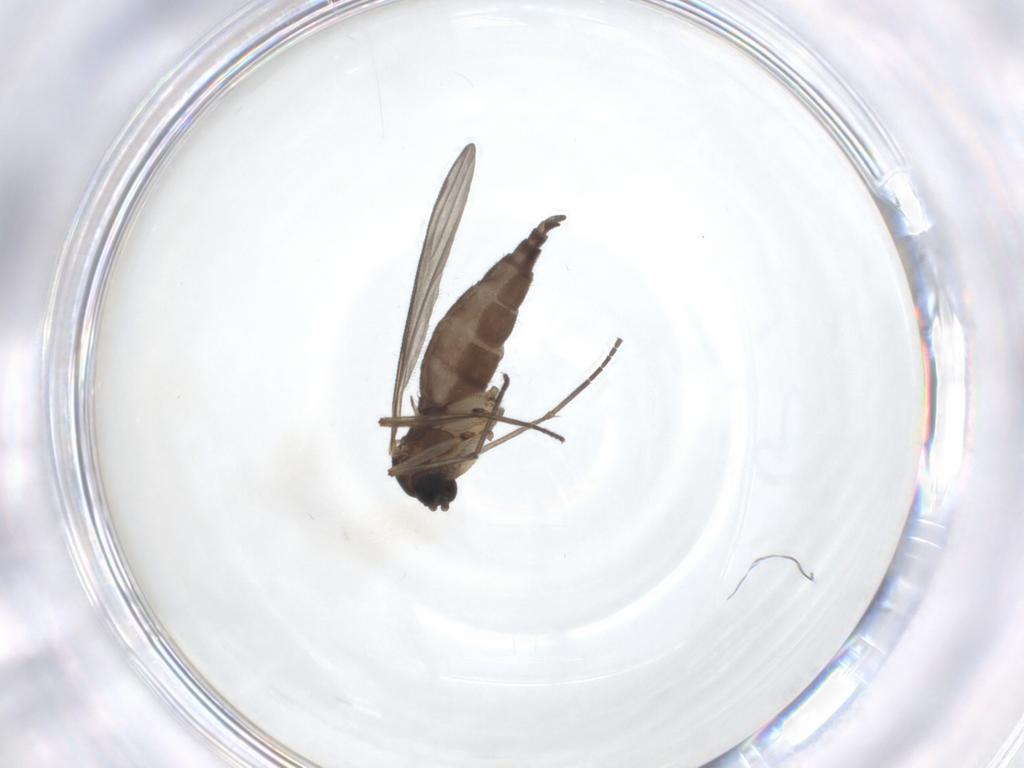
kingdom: Animalia
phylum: Arthropoda
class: Insecta
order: Diptera
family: Sciaridae
